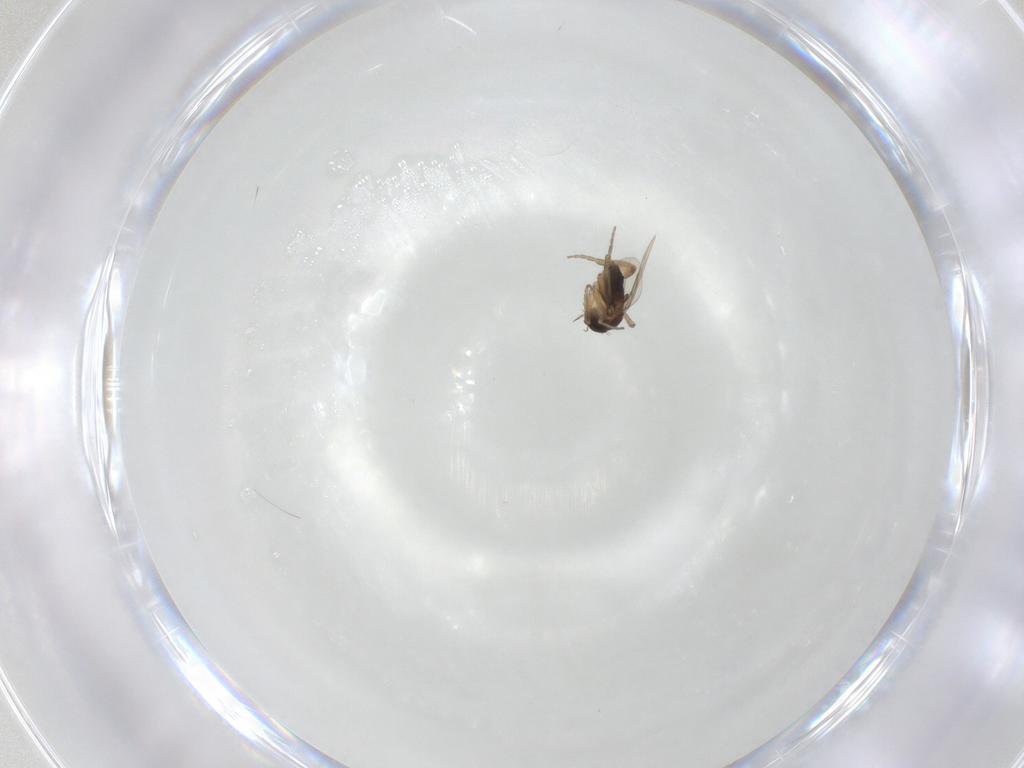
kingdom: Animalia
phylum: Arthropoda
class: Insecta
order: Diptera
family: Phoridae
